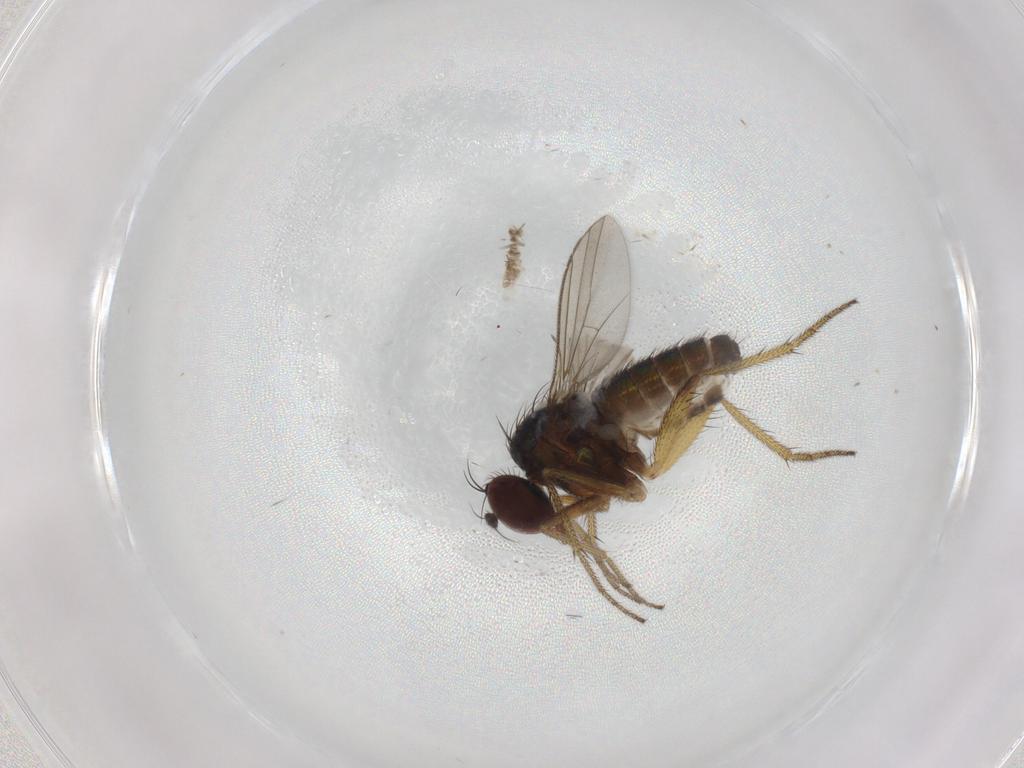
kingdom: Animalia
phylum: Arthropoda
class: Insecta
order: Diptera
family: Dolichopodidae
